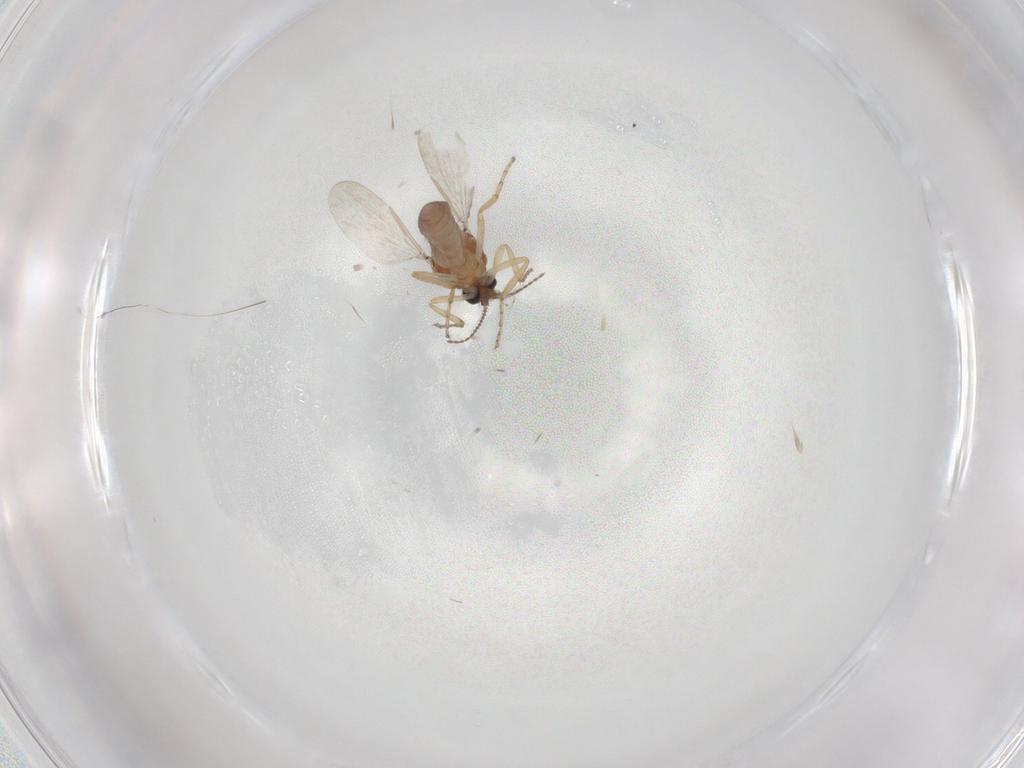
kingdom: Animalia
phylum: Arthropoda
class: Insecta
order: Diptera
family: Ceratopogonidae
